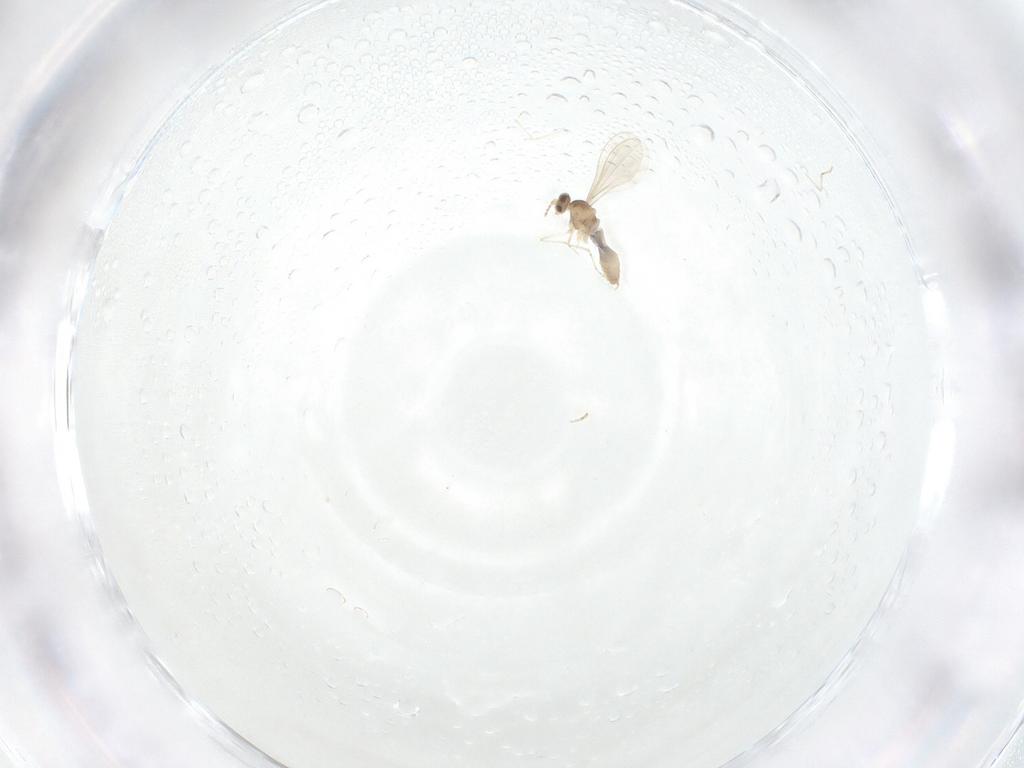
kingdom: Animalia
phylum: Arthropoda
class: Insecta
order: Diptera
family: Cecidomyiidae
